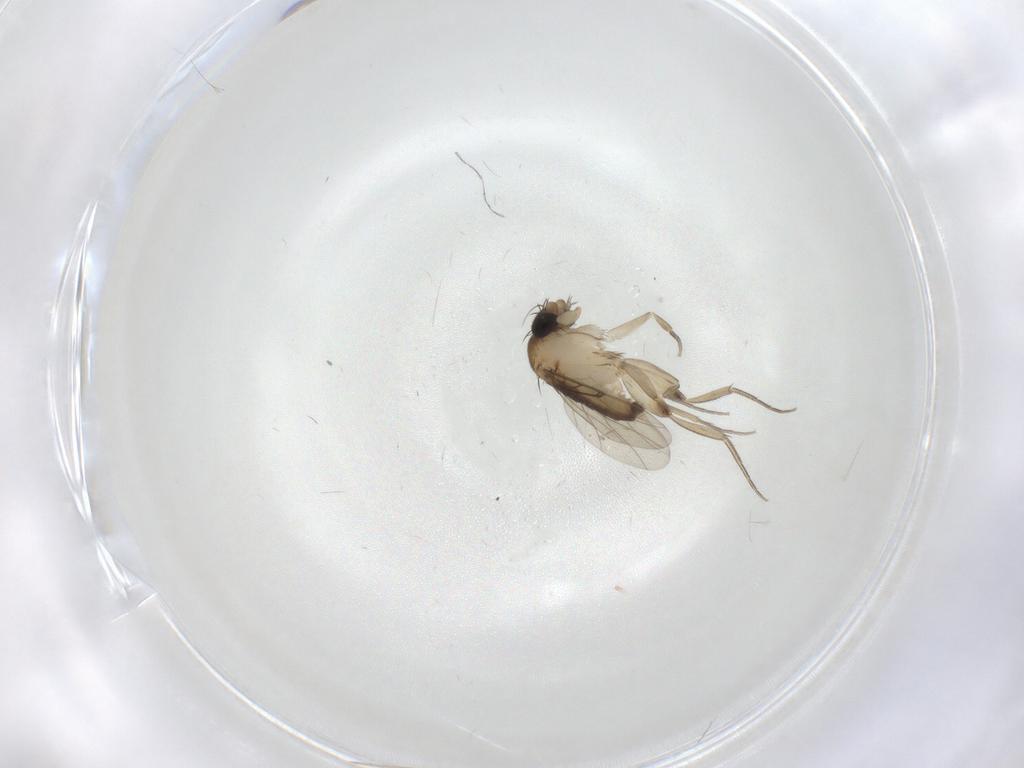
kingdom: Animalia
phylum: Arthropoda
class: Insecta
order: Diptera
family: Phoridae
